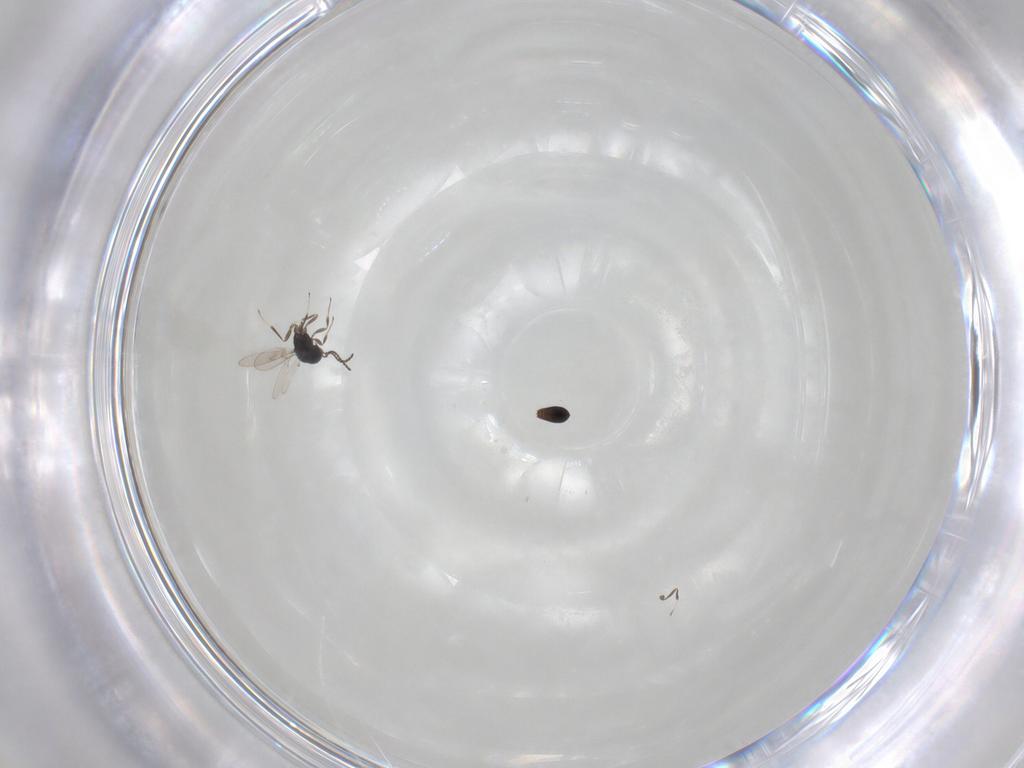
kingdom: Animalia
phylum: Arthropoda
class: Insecta
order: Hymenoptera
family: Scelionidae
